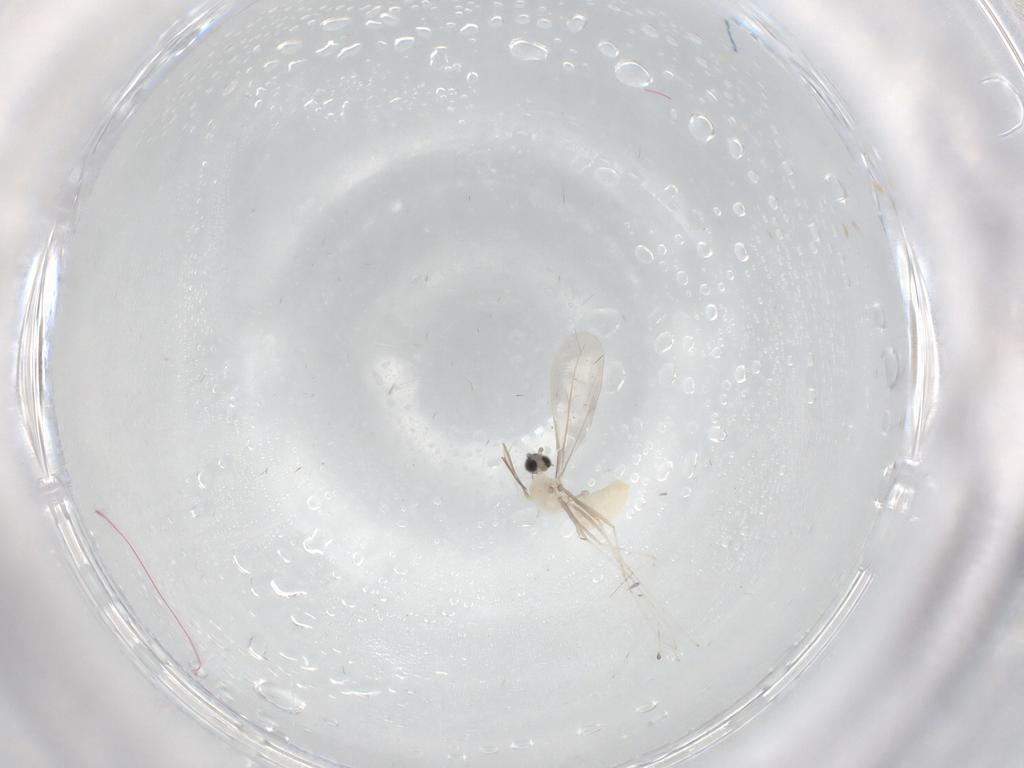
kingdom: Animalia
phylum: Arthropoda
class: Insecta
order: Diptera
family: Cecidomyiidae
